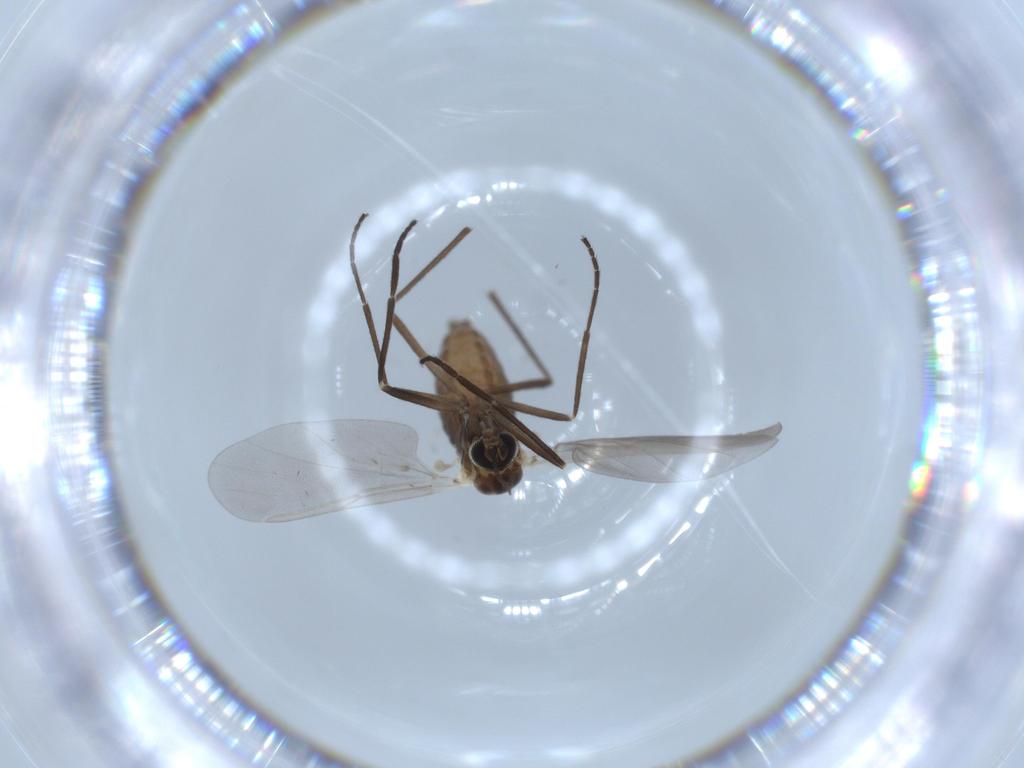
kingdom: Animalia
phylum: Arthropoda
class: Insecta
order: Diptera
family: Cecidomyiidae
